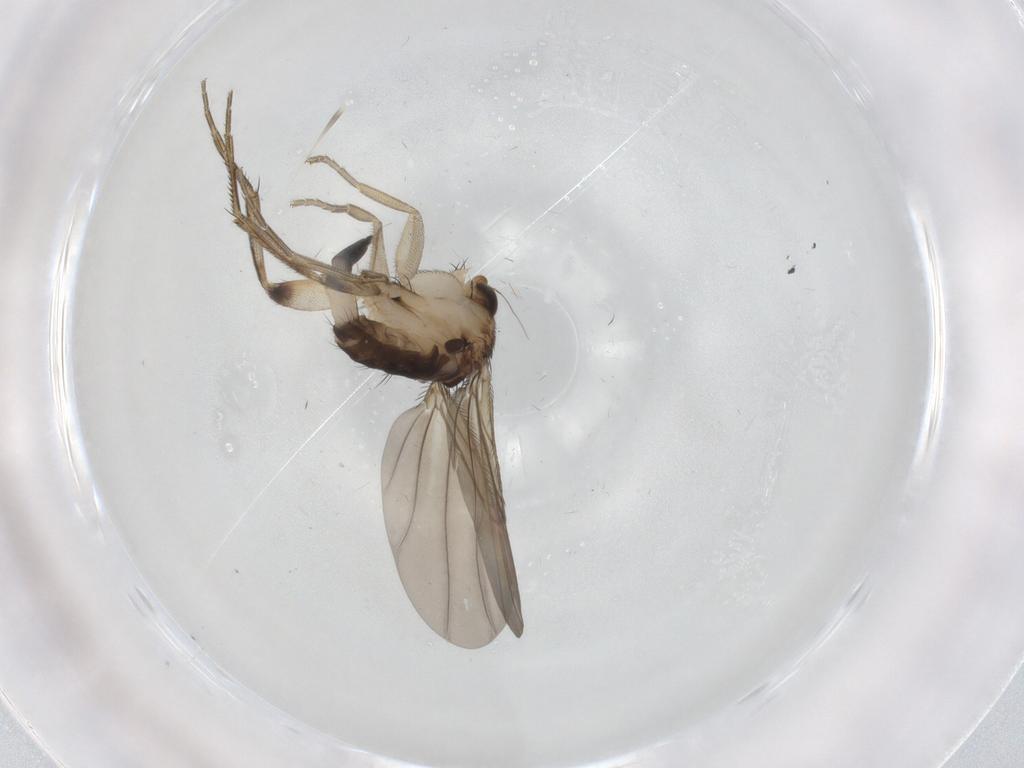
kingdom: Animalia
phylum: Arthropoda
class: Insecta
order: Diptera
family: Phoridae
